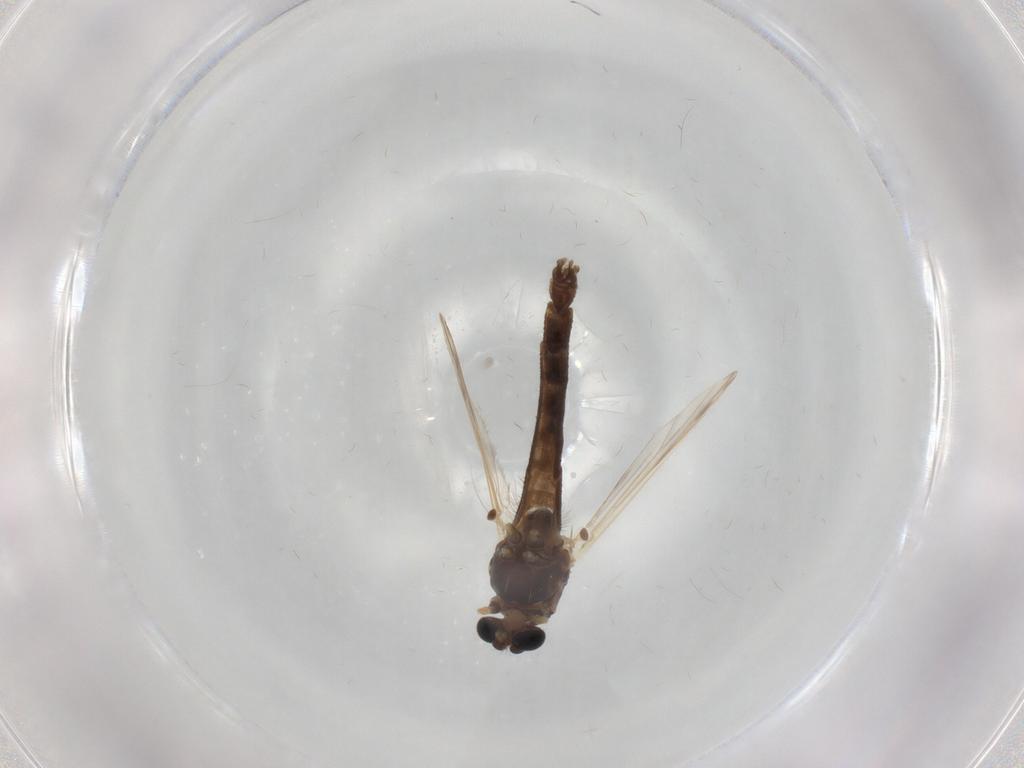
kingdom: Animalia
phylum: Arthropoda
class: Insecta
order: Diptera
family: Chironomidae
